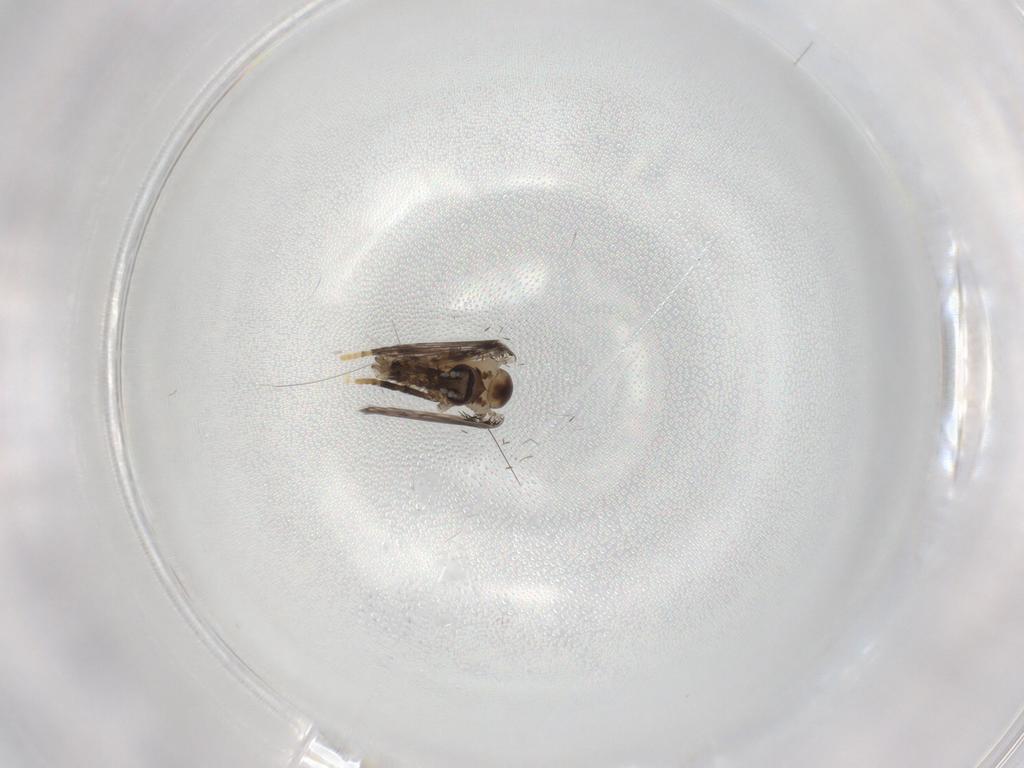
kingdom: Animalia
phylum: Arthropoda
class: Insecta
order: Diptera
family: Psychodidae
